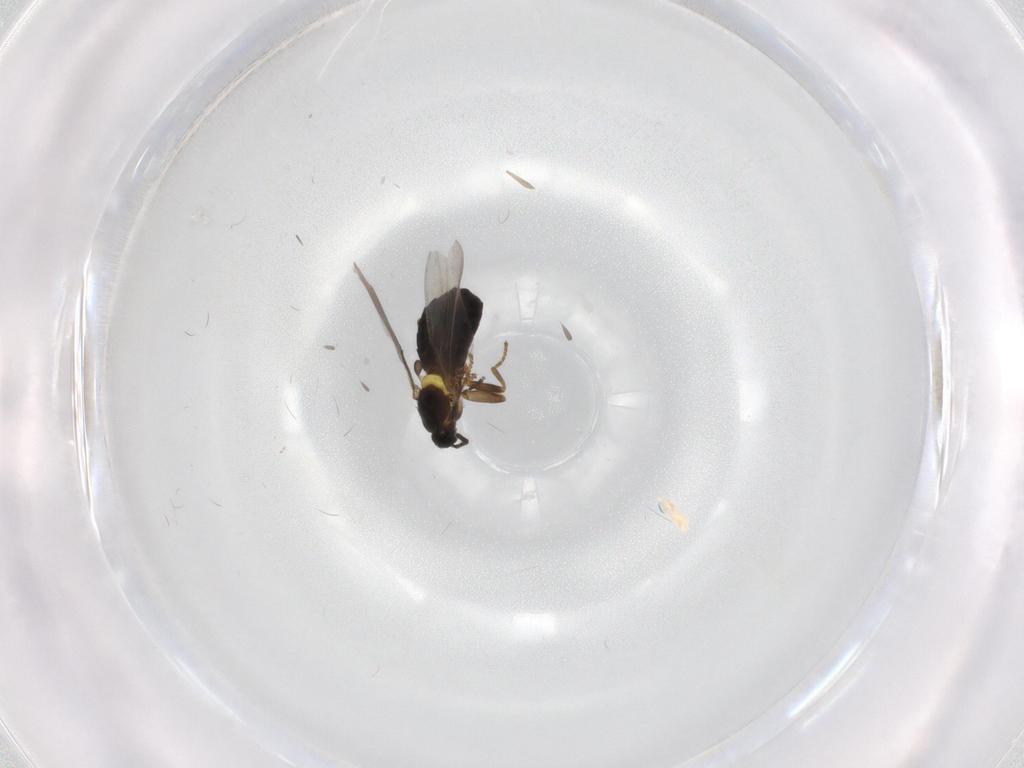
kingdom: Animalia
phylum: Arthropoda
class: Insecta
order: Diptera
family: Scatopsidae
